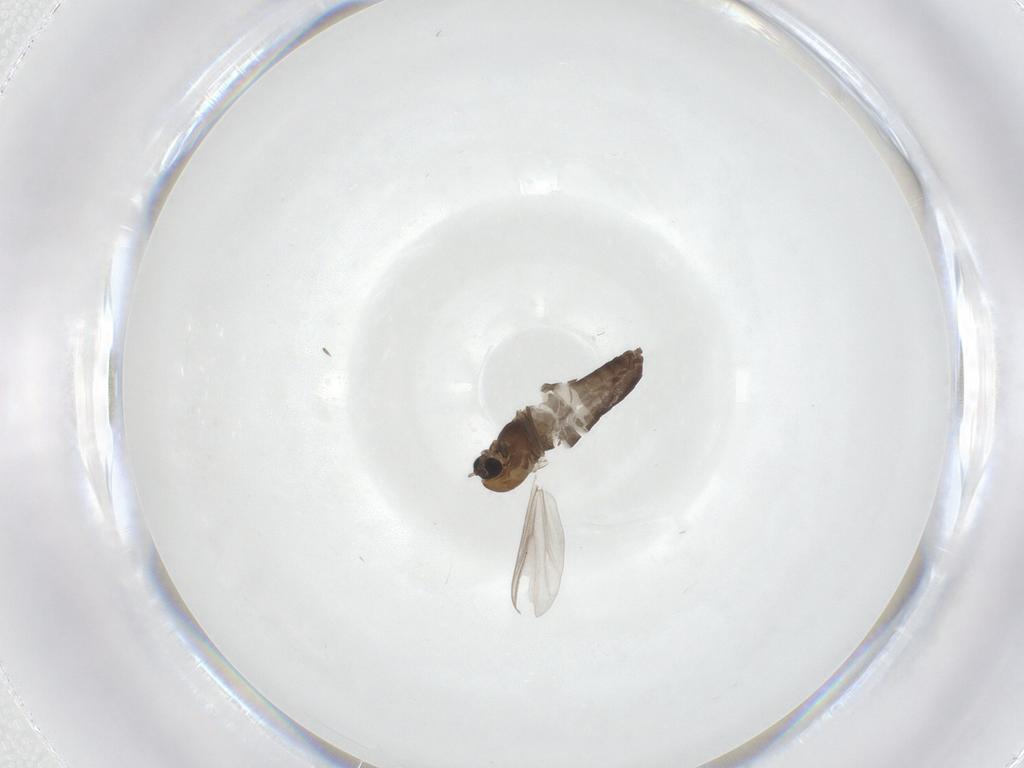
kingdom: Animalia
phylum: Arthropoda
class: Insecta
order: Diptera
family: Chironomidae
